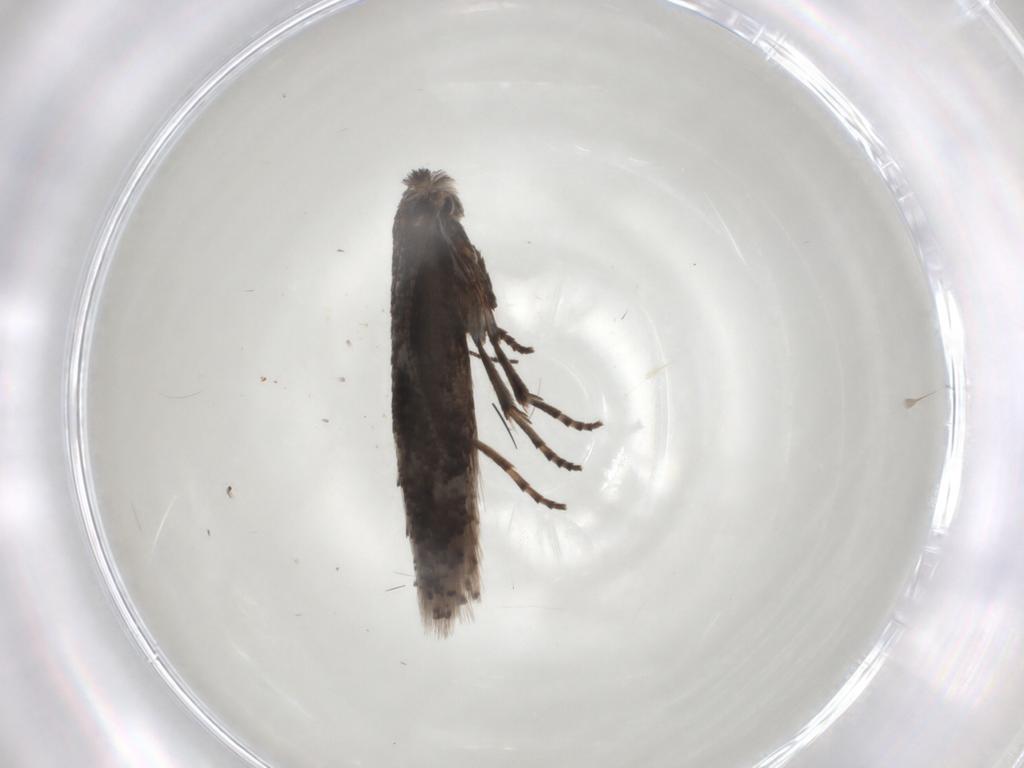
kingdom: Animalia
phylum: Arthropoda
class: Insecta
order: Lepidoptera
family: Bucculatricidae
